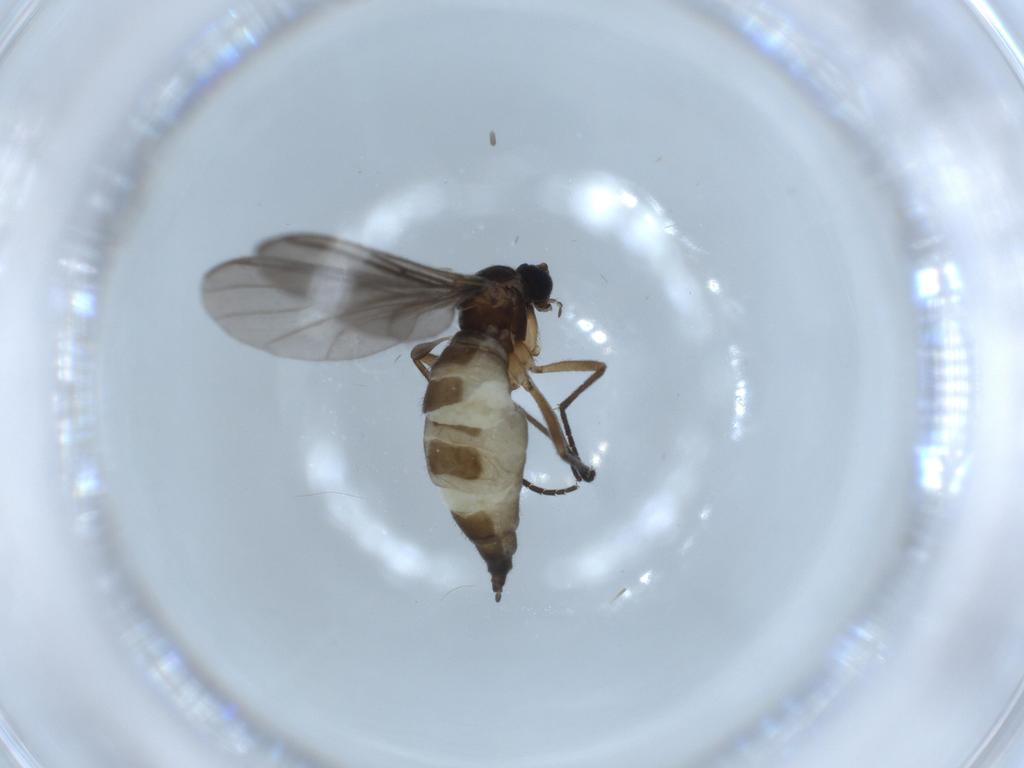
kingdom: Animalia
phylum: Arthropoda
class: Insecta
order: Diptera
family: Sciaridae
